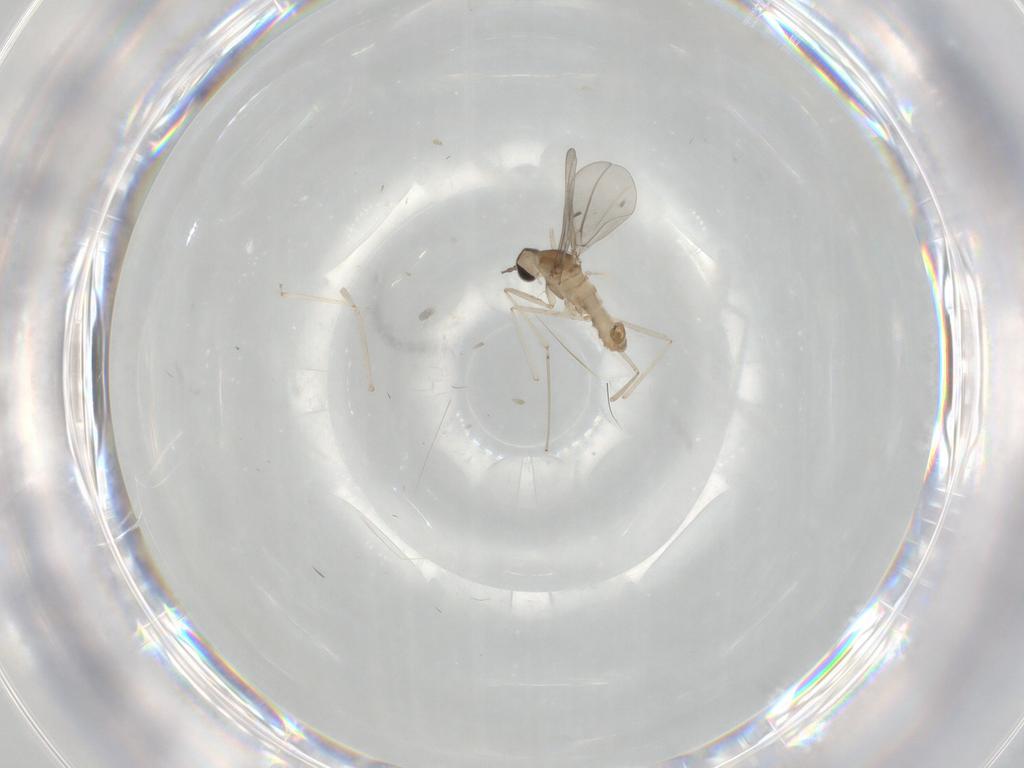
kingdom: Animalia
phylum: Arthropoda
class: Insecta
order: Diptera
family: Cecidomyiidae
